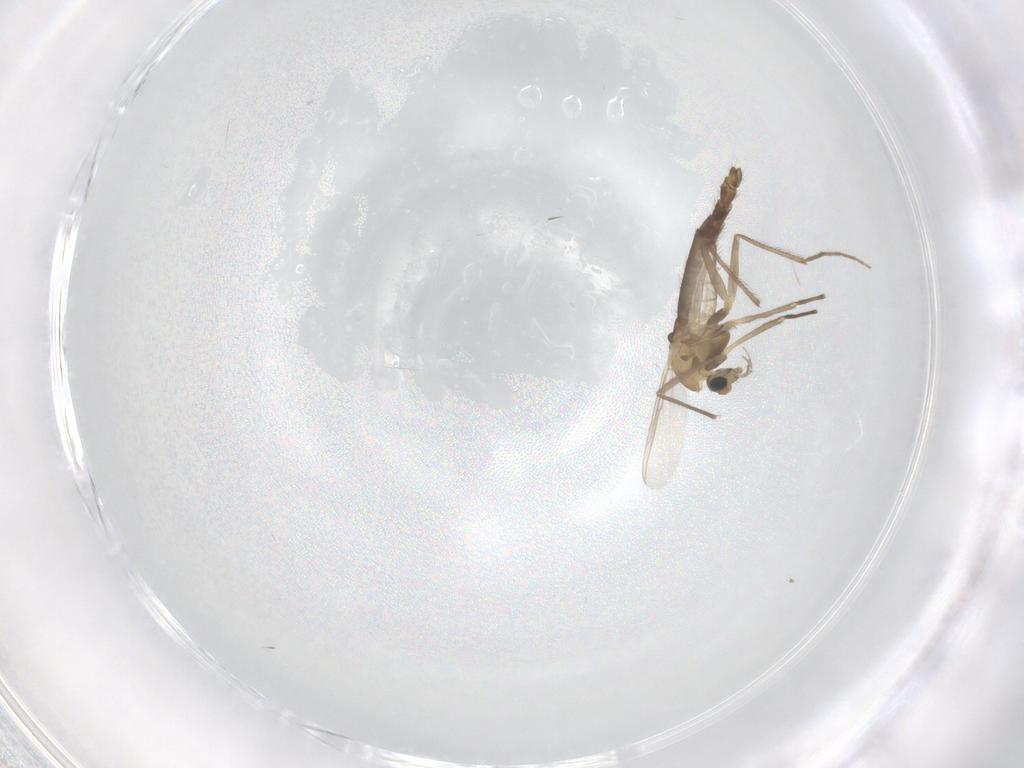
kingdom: Animalia
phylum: Arthropoda
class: Insecta
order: Diptera
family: Chironomidae
